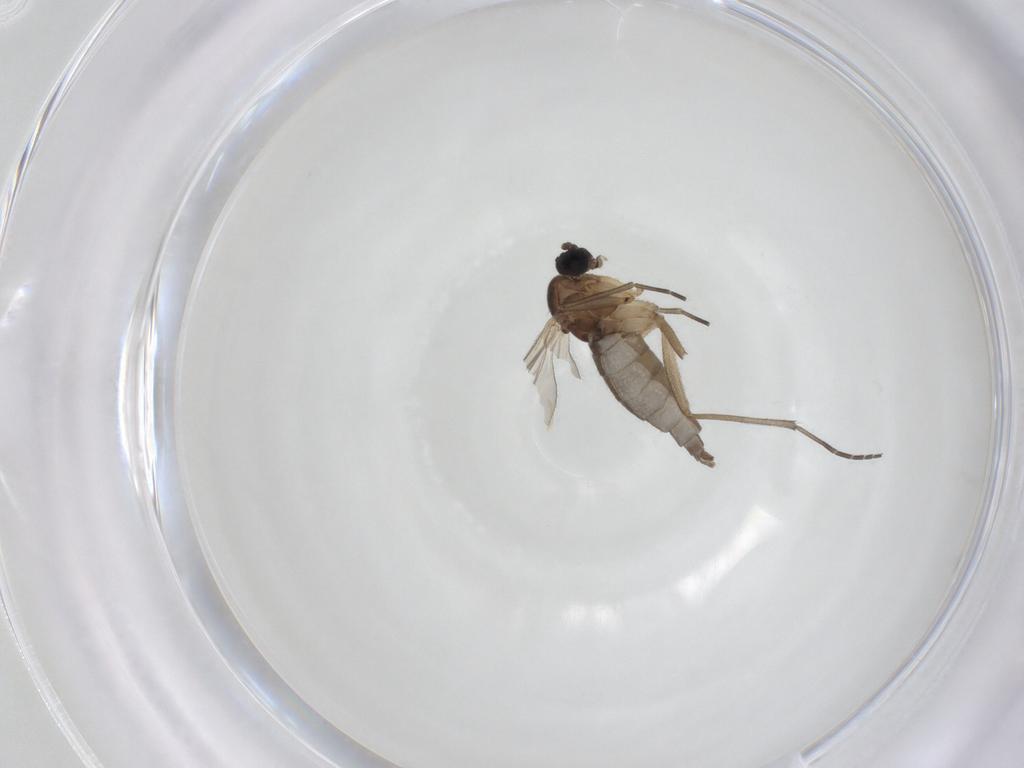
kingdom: Animalia
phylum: Arthropoda
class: Insecta
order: Diptera
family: Sciaridae
